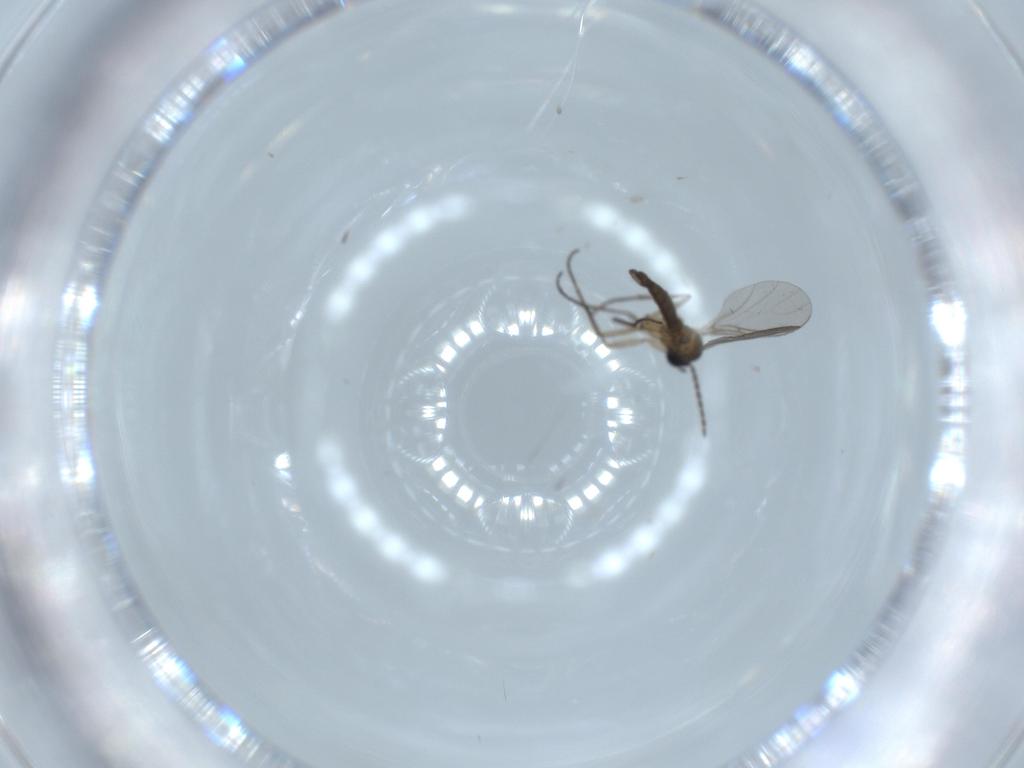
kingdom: Animalia
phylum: Arthropoda
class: Insecta
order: Diptera
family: Sciaridae
